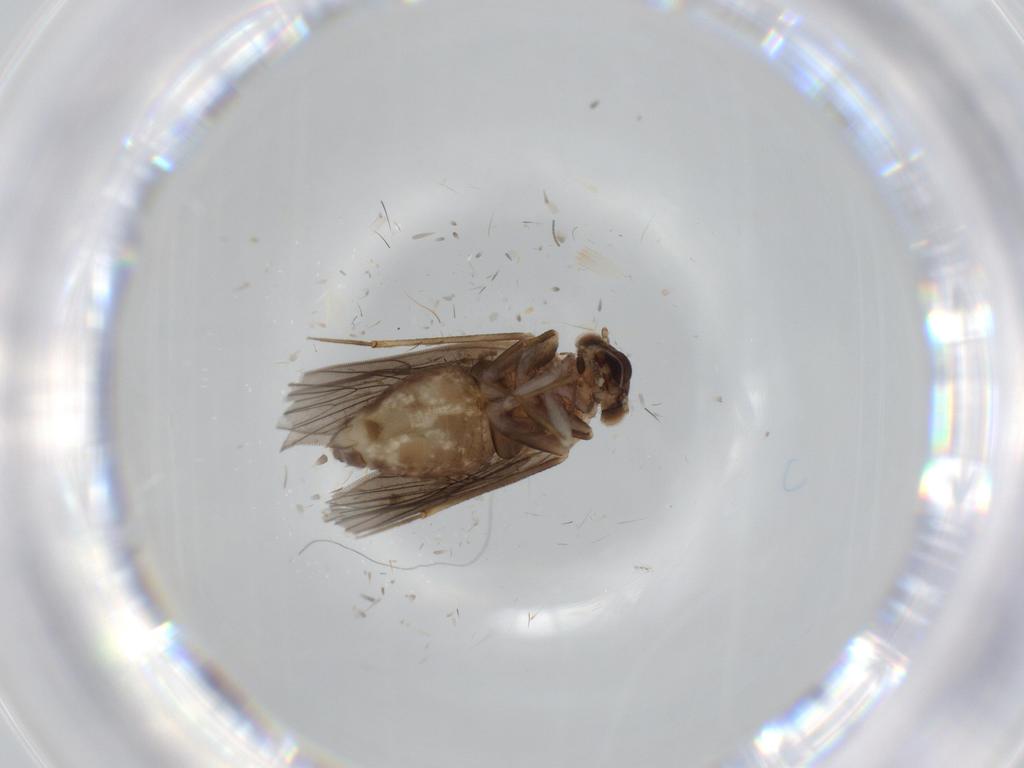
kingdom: Animalia
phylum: Arthropoda
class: Insecta
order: Psocodea
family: Lepidopsocidae
